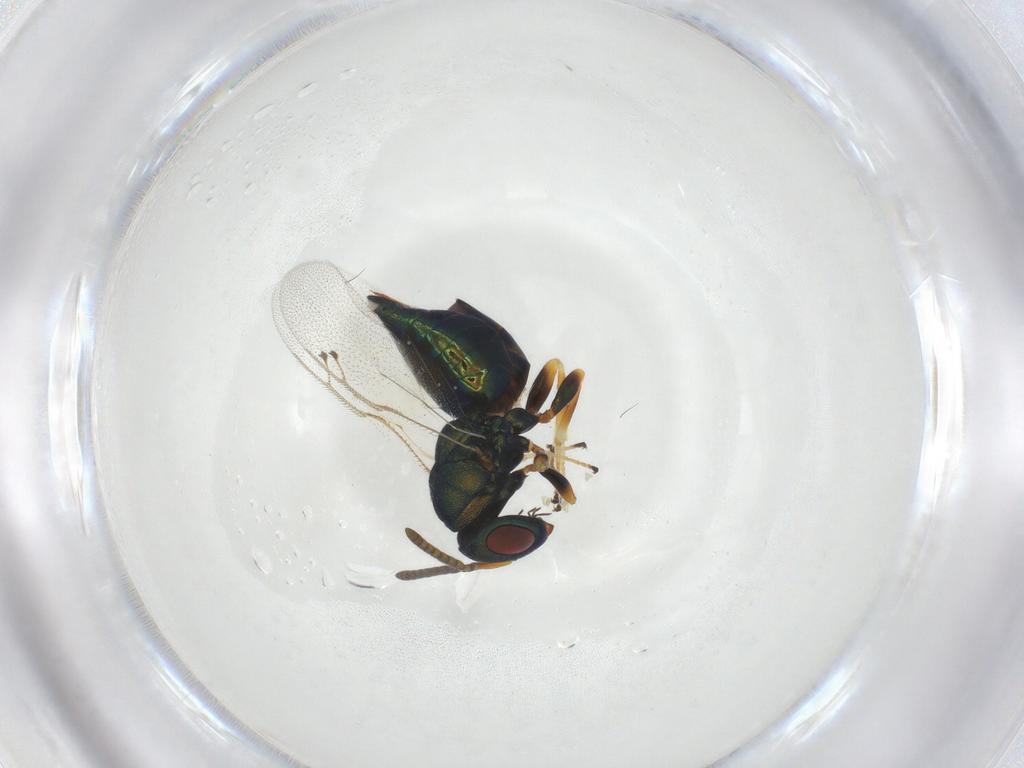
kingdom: Animalia
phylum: Arthropoda
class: Insecta
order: Hymenoptera
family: Pteromalidae
